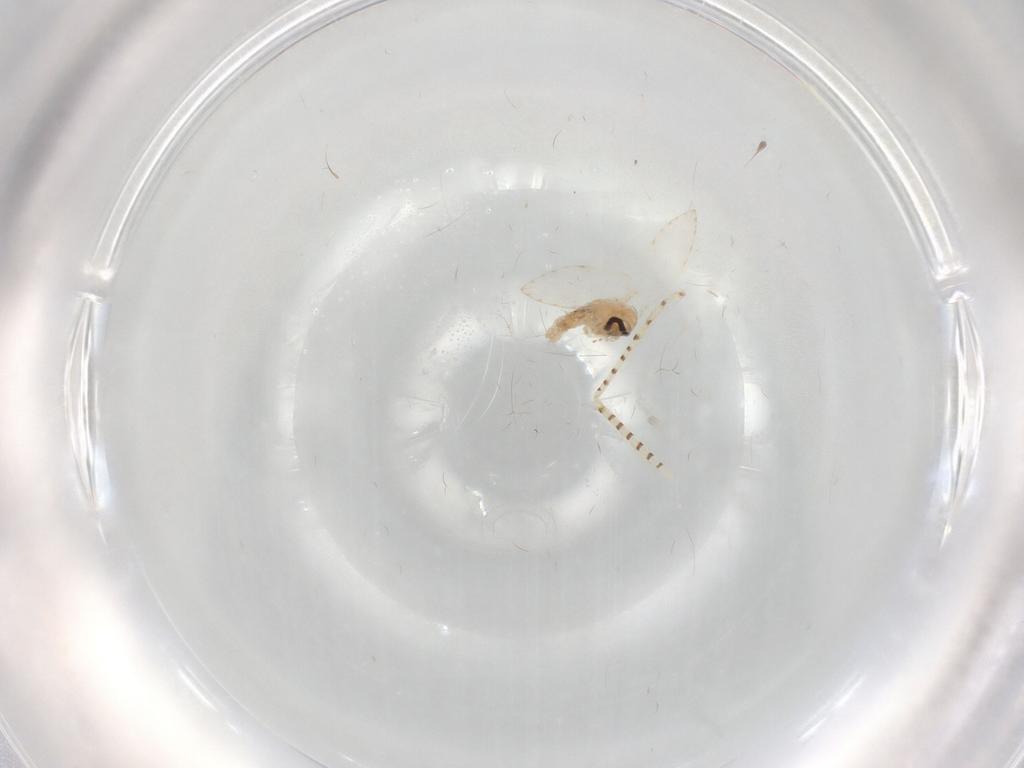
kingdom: Animalia
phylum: Arthropoda
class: Insecta
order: Diptera
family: Psychodidae
